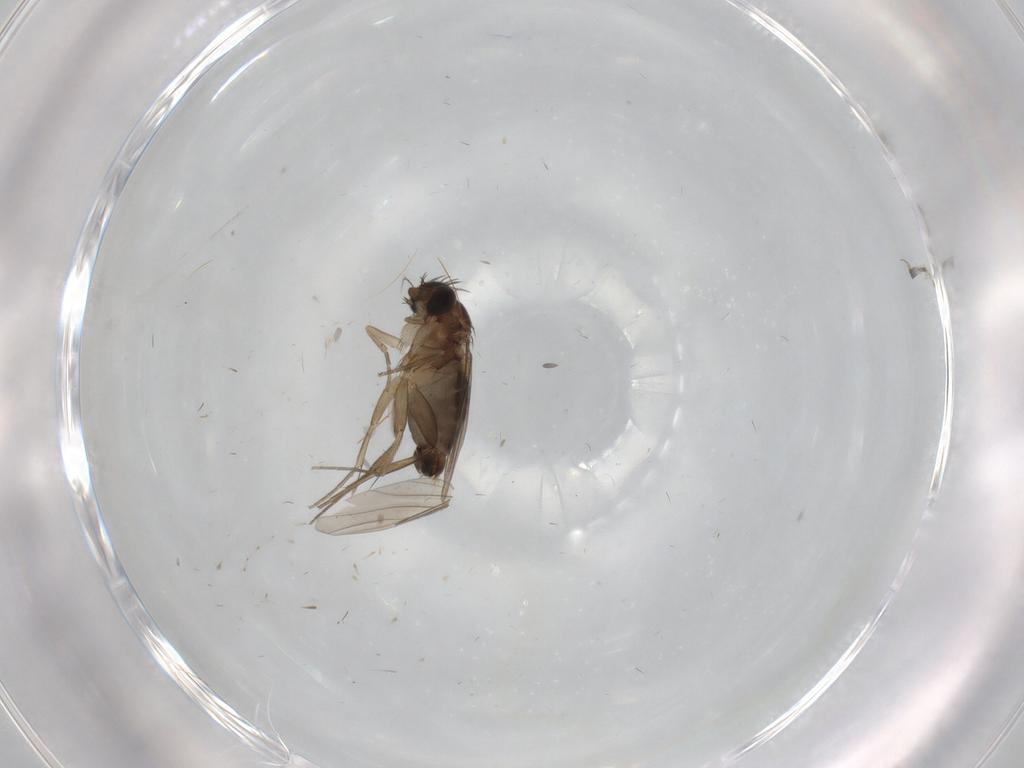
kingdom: Animalia
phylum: Arthropoda
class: Insecta
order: Diptera
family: Phoridae
